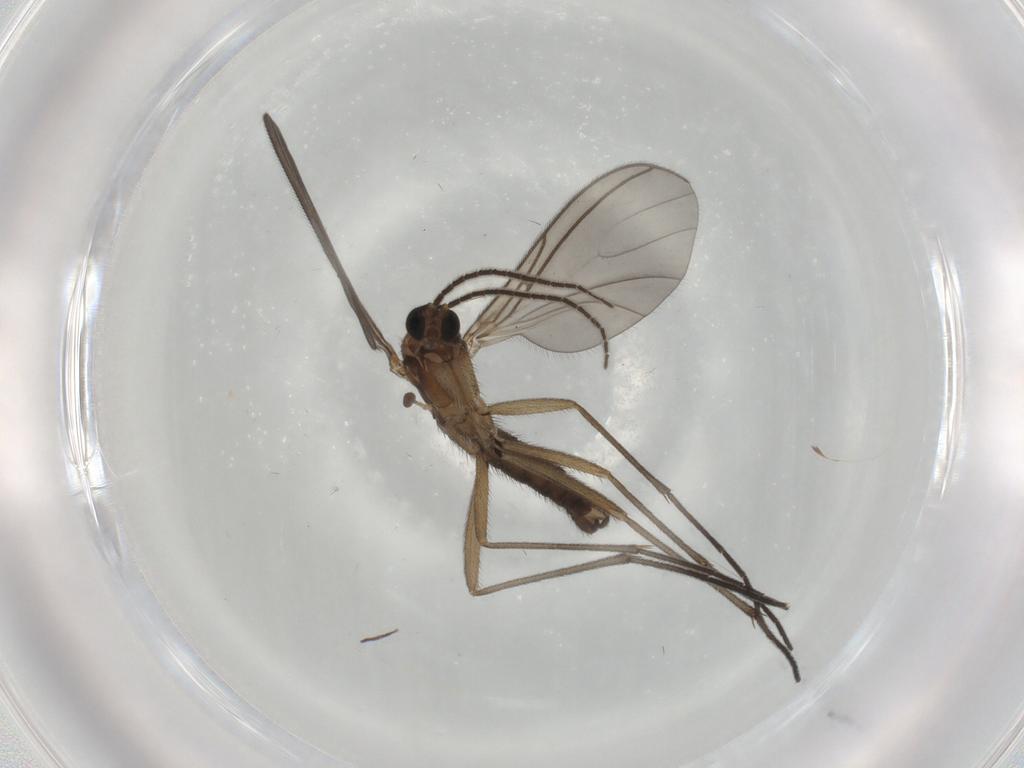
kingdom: Animalia
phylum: Arthropoda
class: Insecta
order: Diptera
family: Sciaridae
